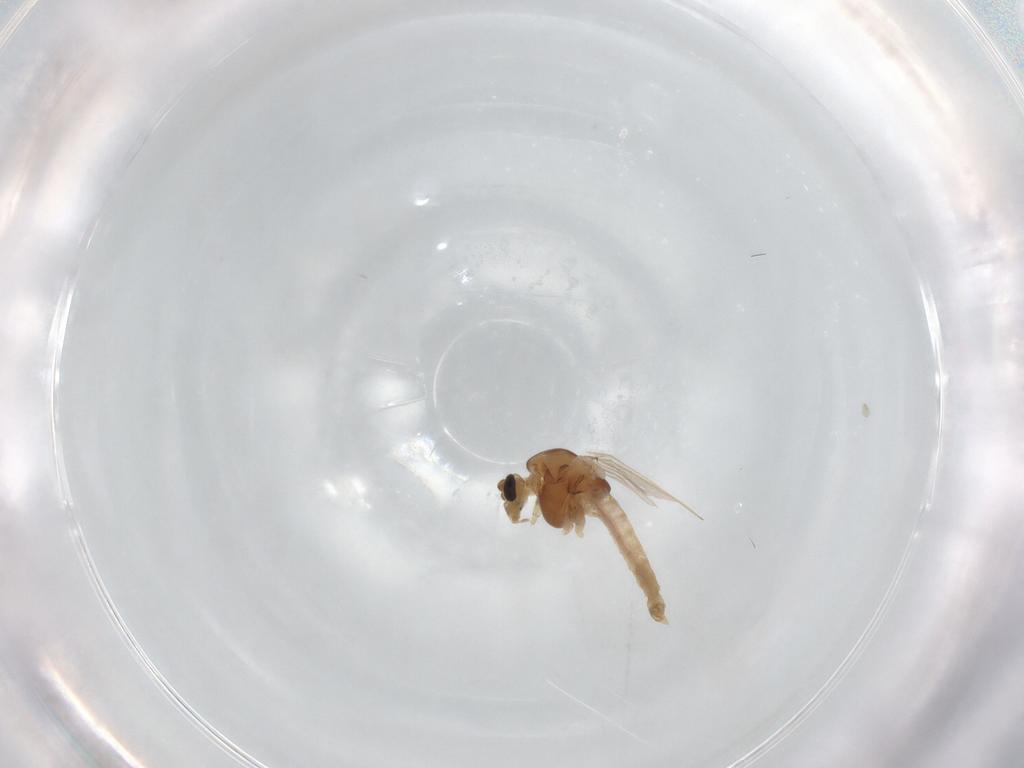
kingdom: Animalia
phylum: Arthropoda
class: Insecta
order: Diptera
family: Chironomidae
